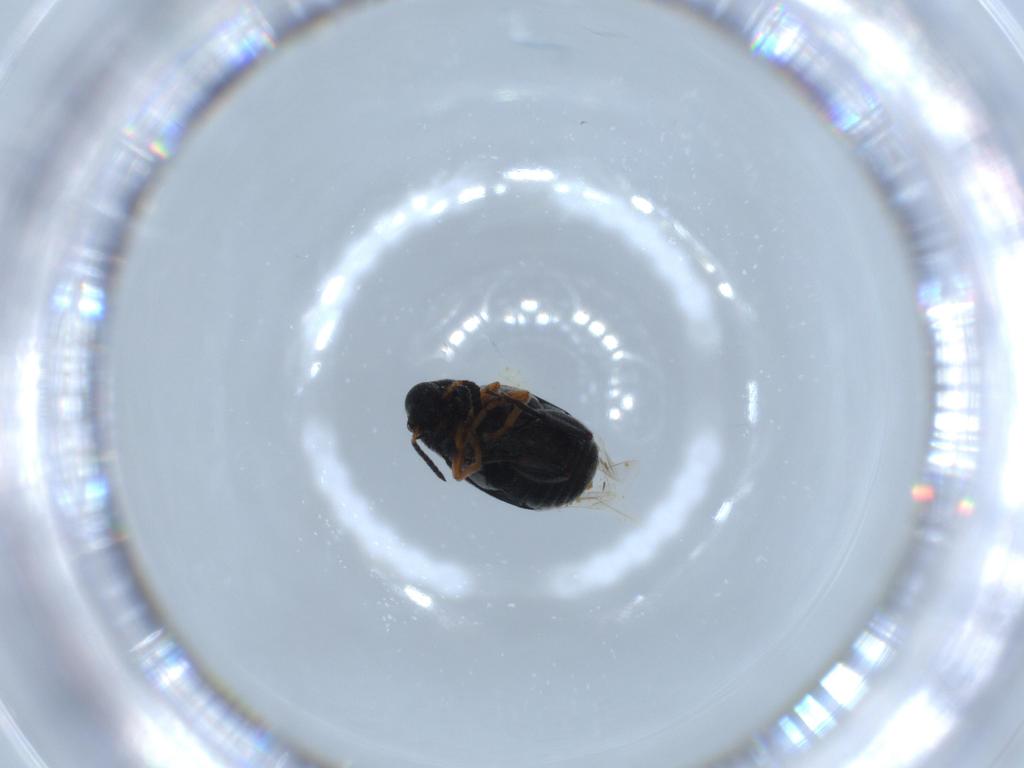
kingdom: Animalia
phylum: Arthropoda
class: Insecta
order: Coleoptera
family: Chrysomelidae
